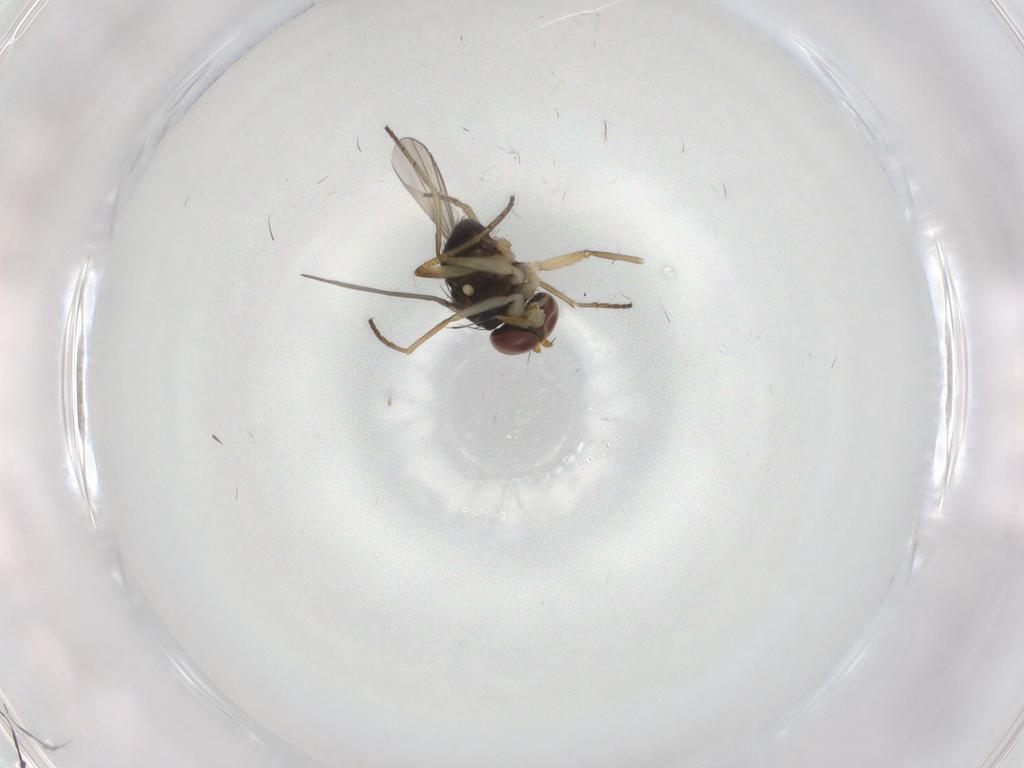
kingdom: Animalia
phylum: Arthropoda
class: Insecta
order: Diptera
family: Dolichopodidae
